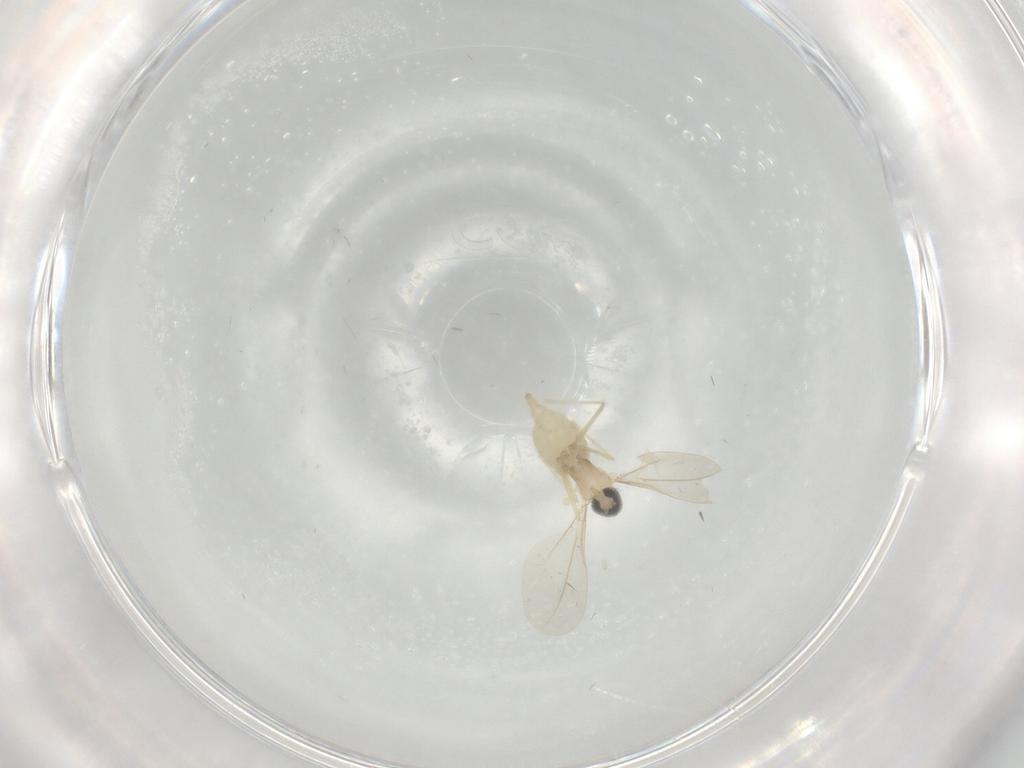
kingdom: Animalia
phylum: Arthropoda
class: Insecta
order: Diptera
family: Cecidomyiidae
